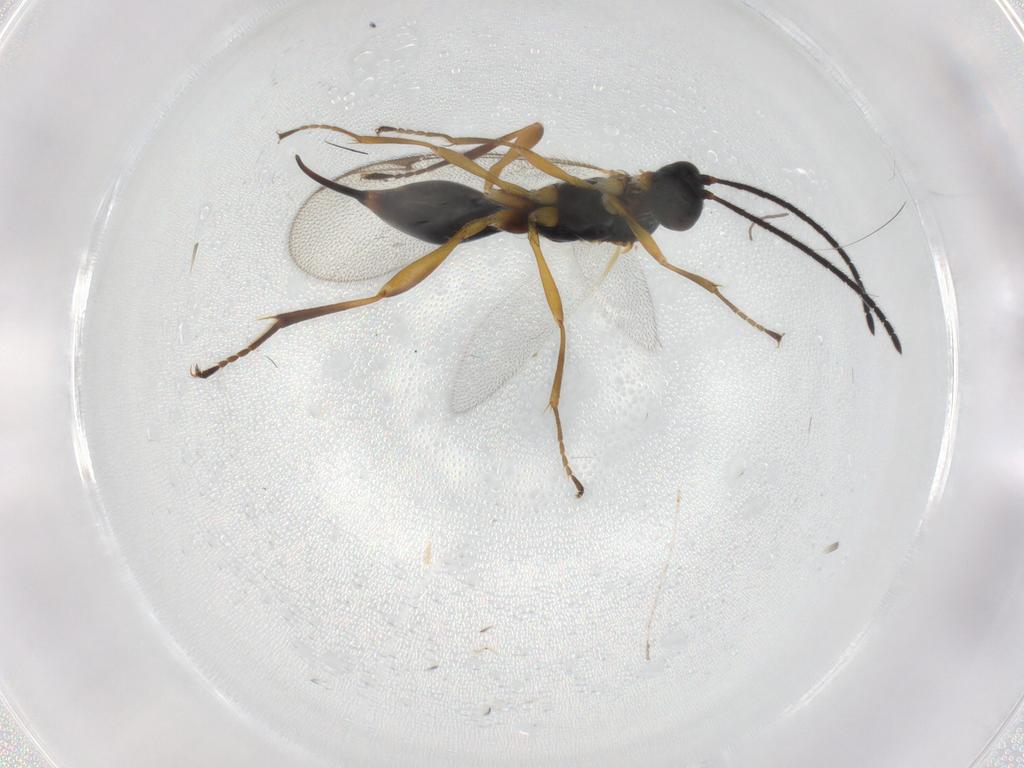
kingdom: Animalia
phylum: Arthropoda
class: Insecta
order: Hymenoptera
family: Proctotrupidae
